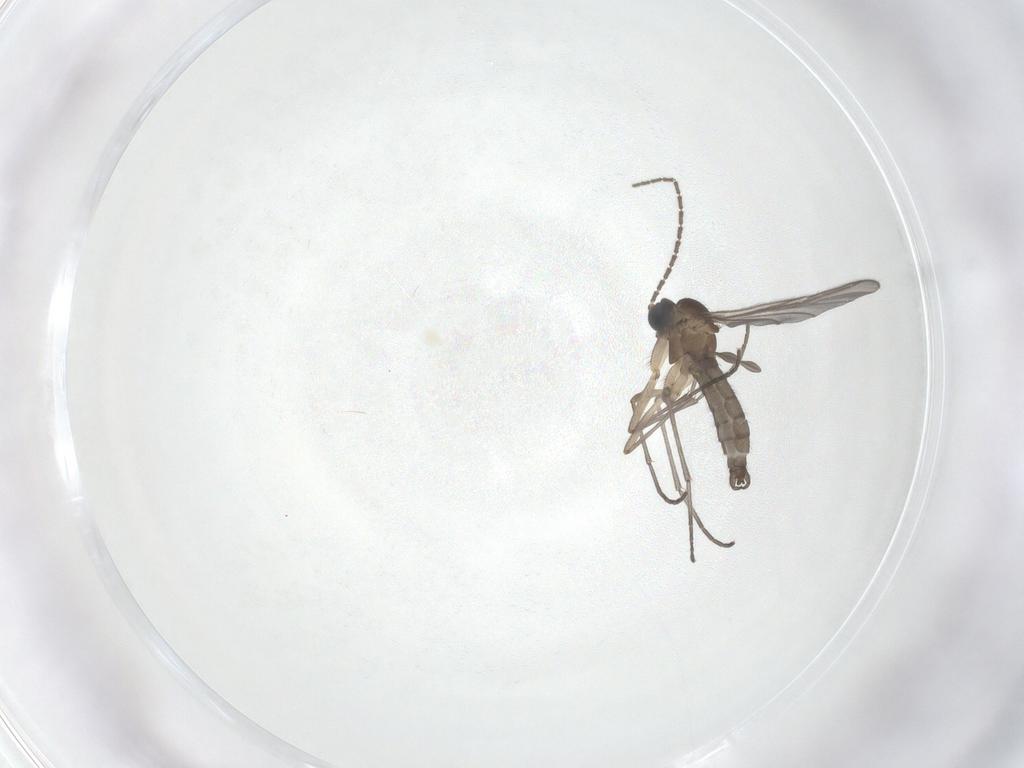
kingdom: Animalia
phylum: Arthropoda
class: Insecta
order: Diptera
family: Sciaridae
